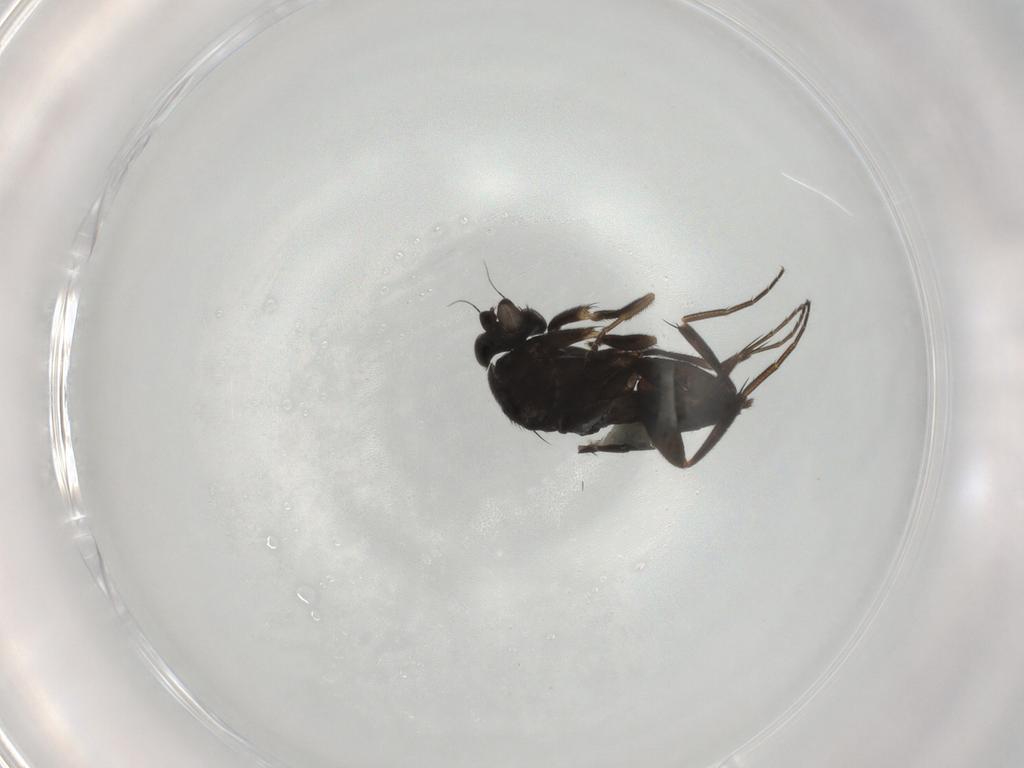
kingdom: Animalia
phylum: Arthropoda
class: Insecta
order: Diptera
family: Phoridae
